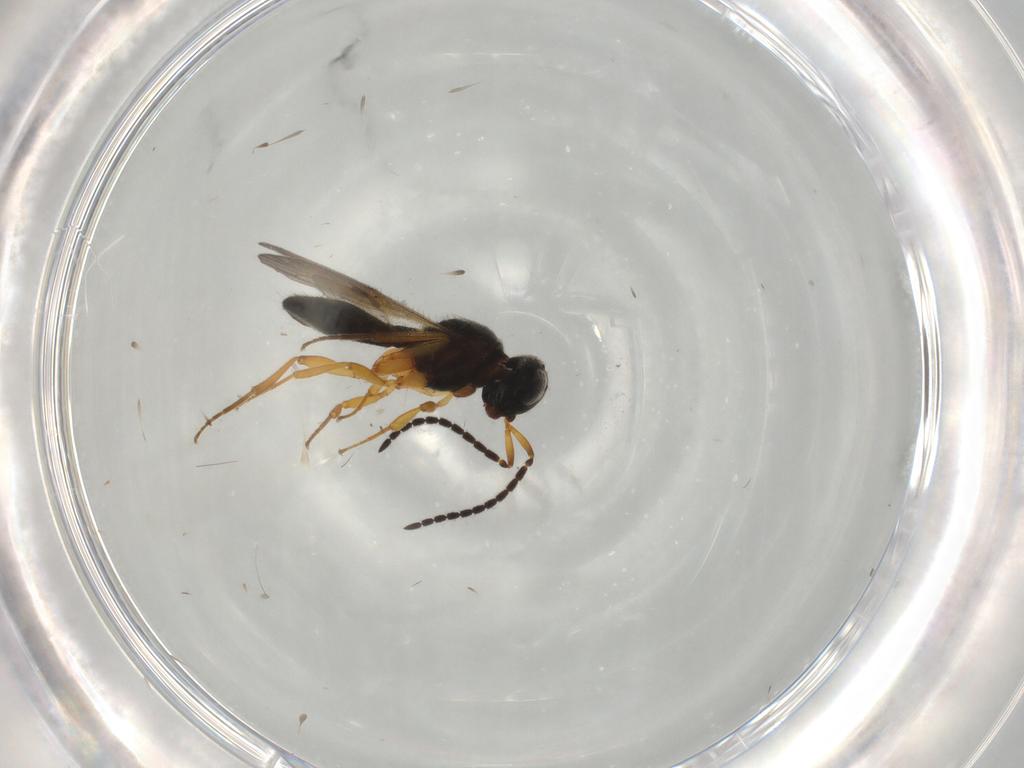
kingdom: Animalia
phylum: Arthropoda
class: Insecta
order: Hymenoptera
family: Scelionidae
